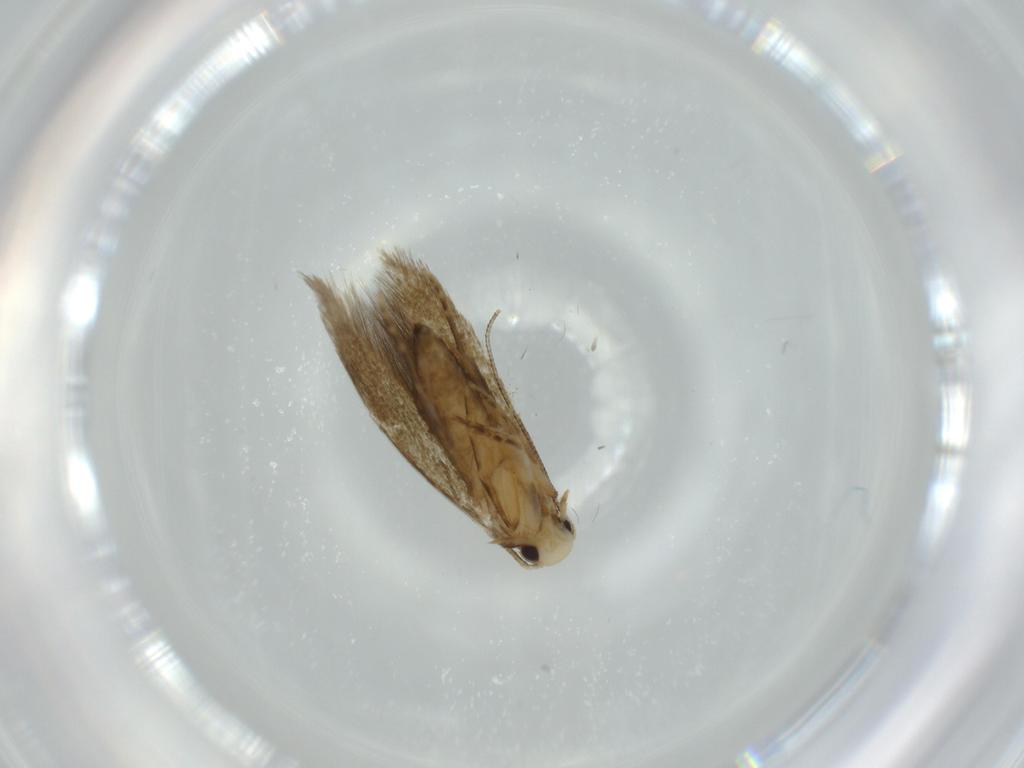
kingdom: Animalia
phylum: Arthropoda
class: Insecta
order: Lepidoptera
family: Tineidae
